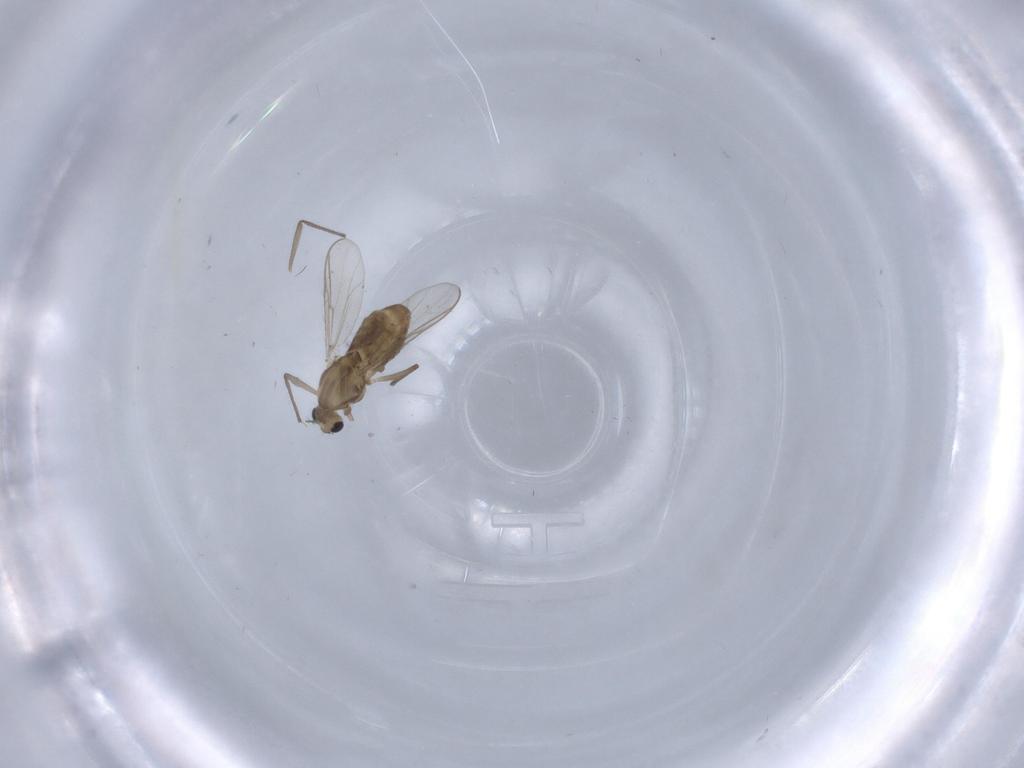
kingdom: Animalia
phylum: Arthropoda
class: Insecta
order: Diptera
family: Chironomidae
